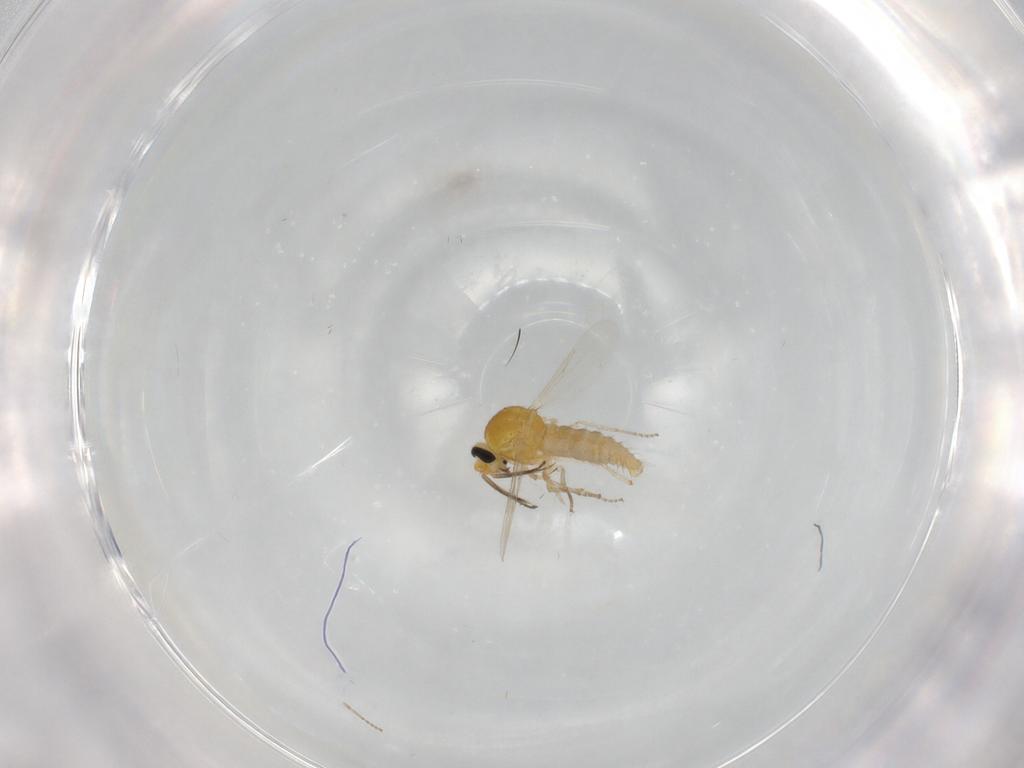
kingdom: Animalia
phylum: Arthropoda
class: Insecta
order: Diptera
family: Ceratopogonidae
